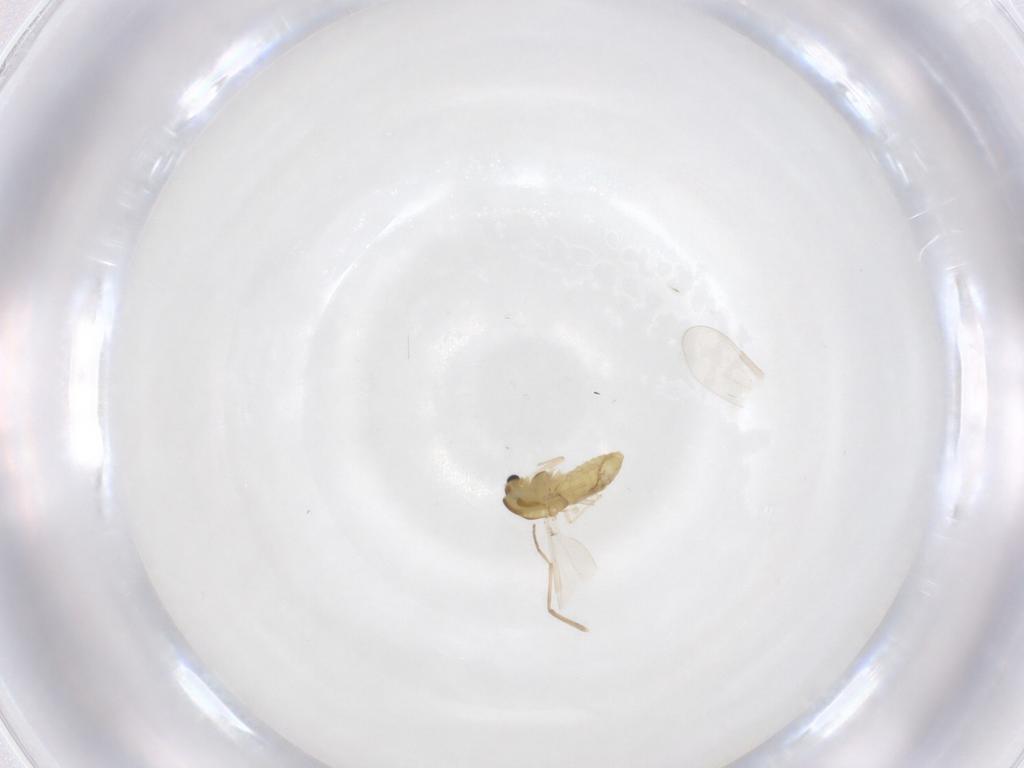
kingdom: Animalia
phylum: Arthropoda
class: Insecta
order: Diptera
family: Chironomidae
